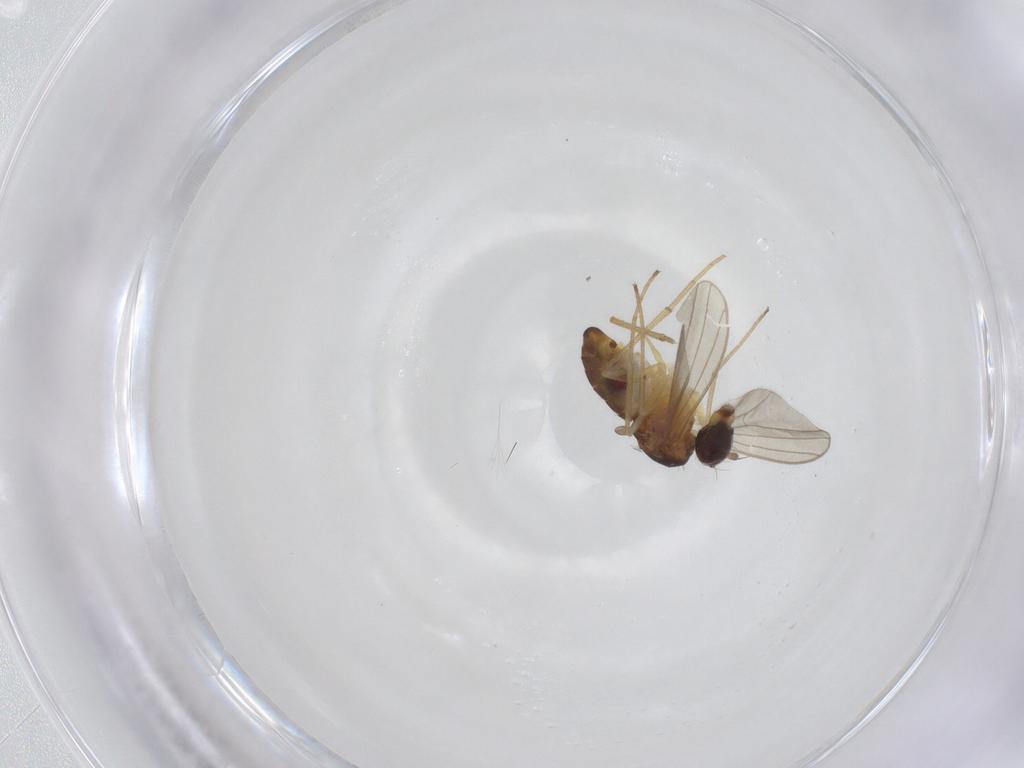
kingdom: Animalia
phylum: Arthropoda
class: Insecta
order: Diptera
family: Dolichopodidae
